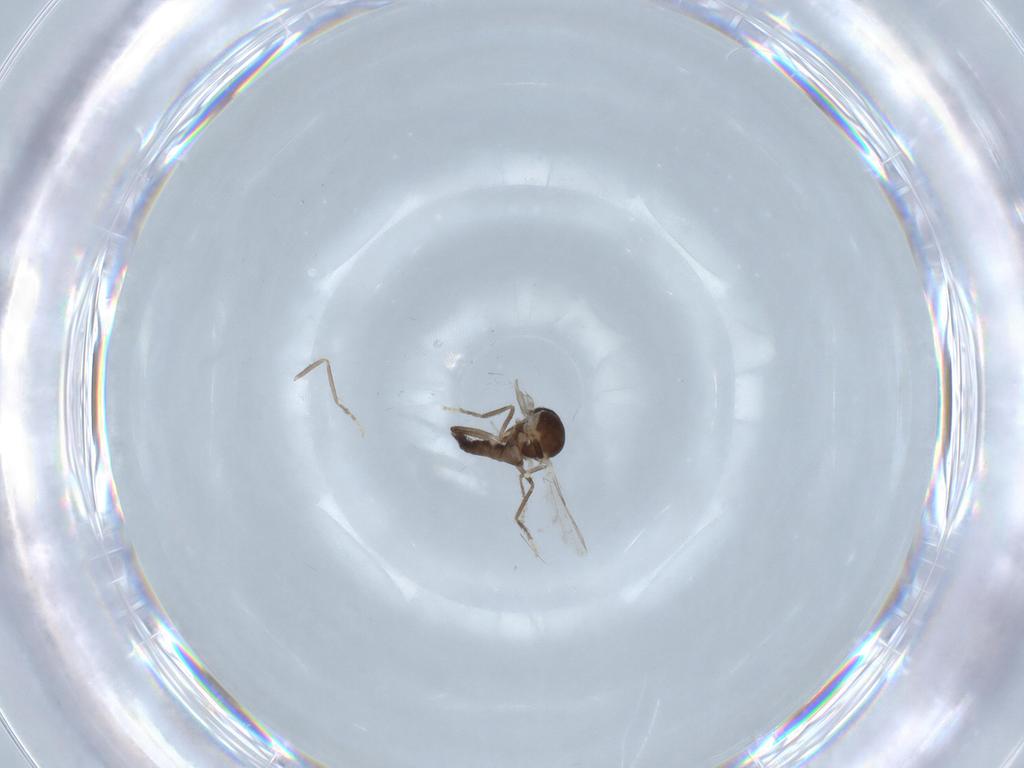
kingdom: Animalia
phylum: Arthropoda
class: Insecta
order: Diptera
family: Ceratopogonidae
